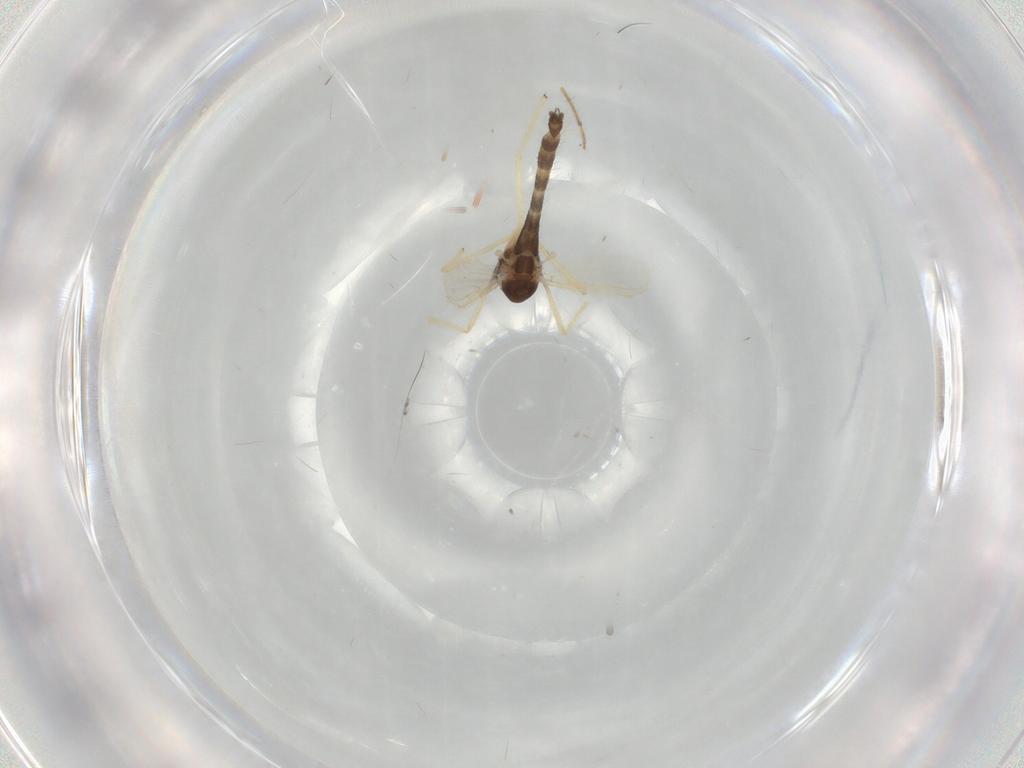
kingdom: Animalia
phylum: Arthropoda
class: Insecta
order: Diptera
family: Chironomidae
